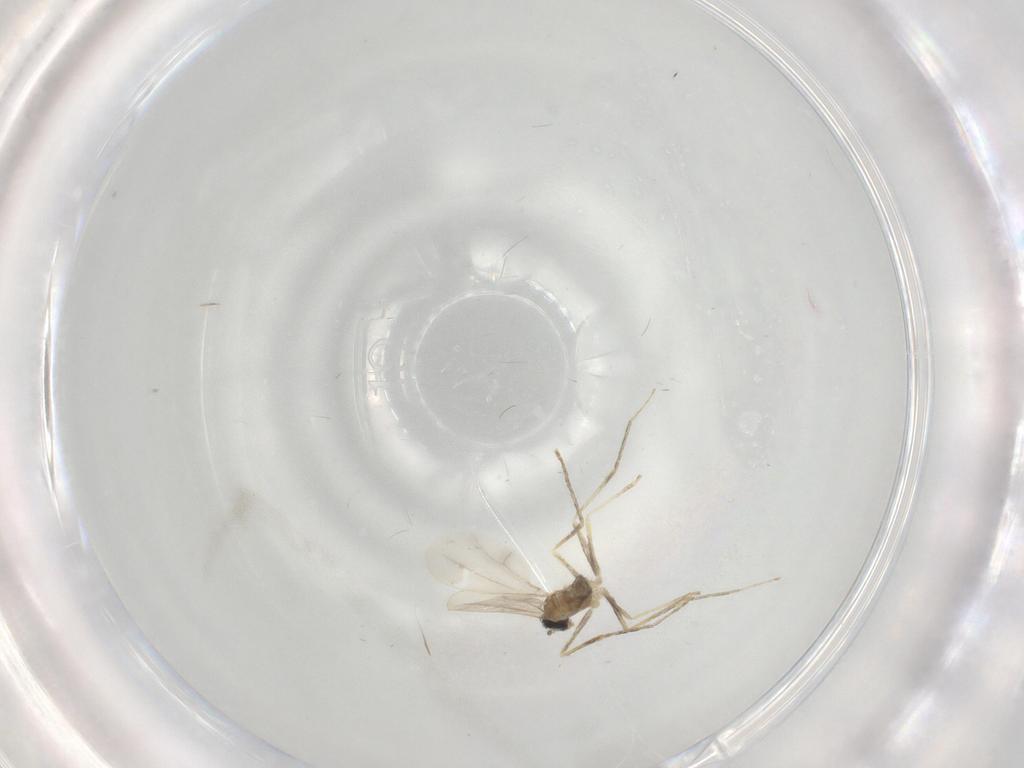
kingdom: Animalia
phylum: Arthropoda
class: Insecta
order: Diptera
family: Cecidomyiidae
